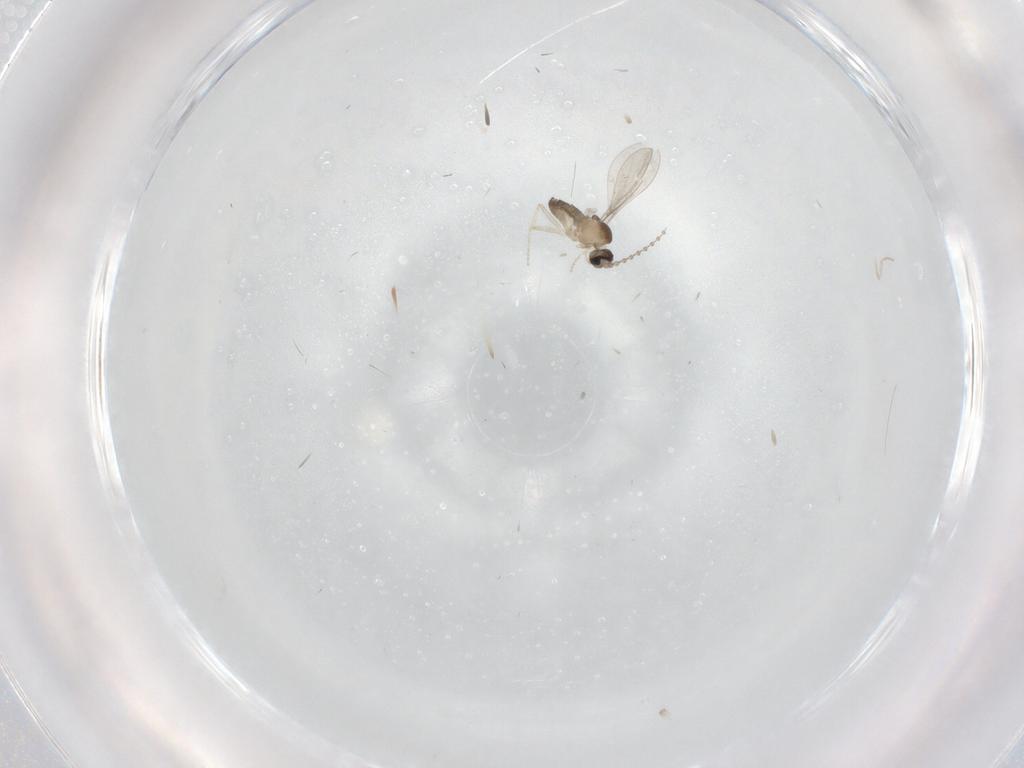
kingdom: Animalia
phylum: Arthropoda
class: Insecta
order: Diptera
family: Cecidomyiidae
